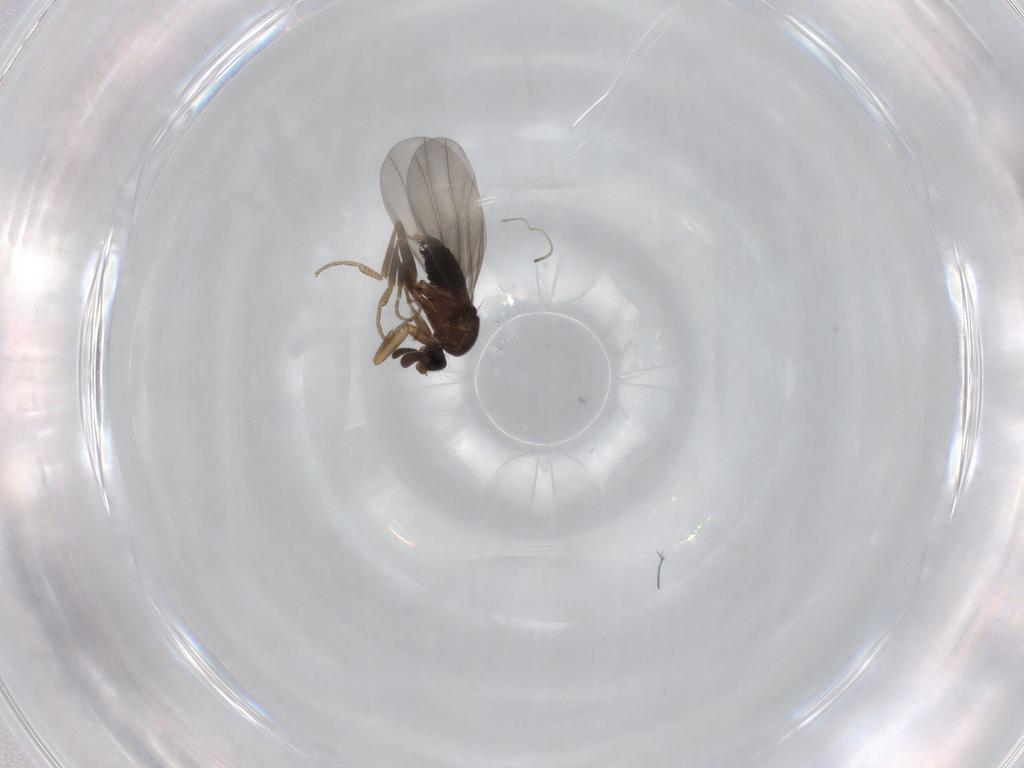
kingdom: Animalia
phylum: Arthropoda
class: Insecta
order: Diptera
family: Mycetophilidae
